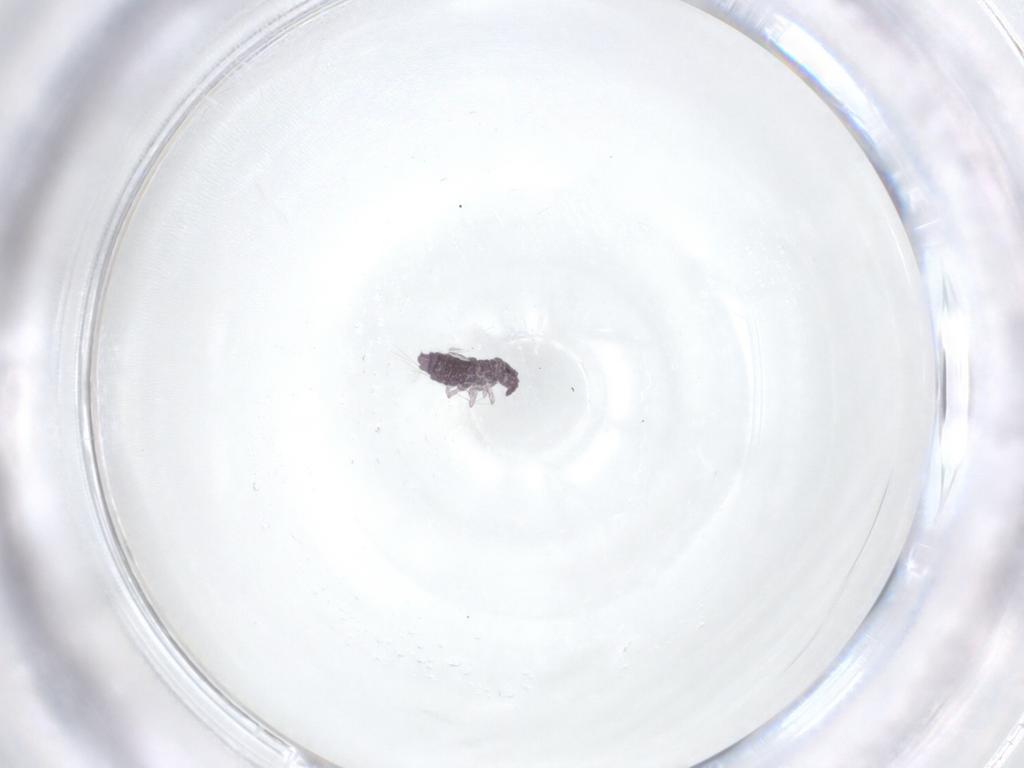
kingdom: Animalia
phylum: Arthropoda
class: Collembola
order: Poduromorpha
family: Hypogastruridae
